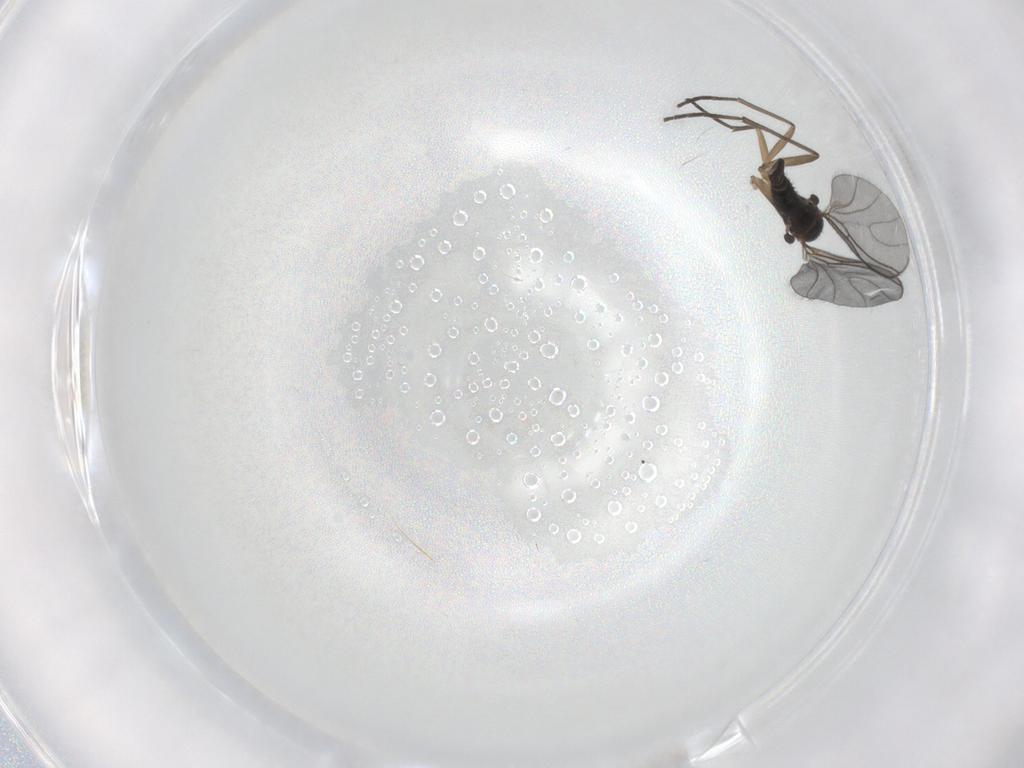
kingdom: Animalia
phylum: Arthropoda
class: Insecta
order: Diptera
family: Sciaridae
